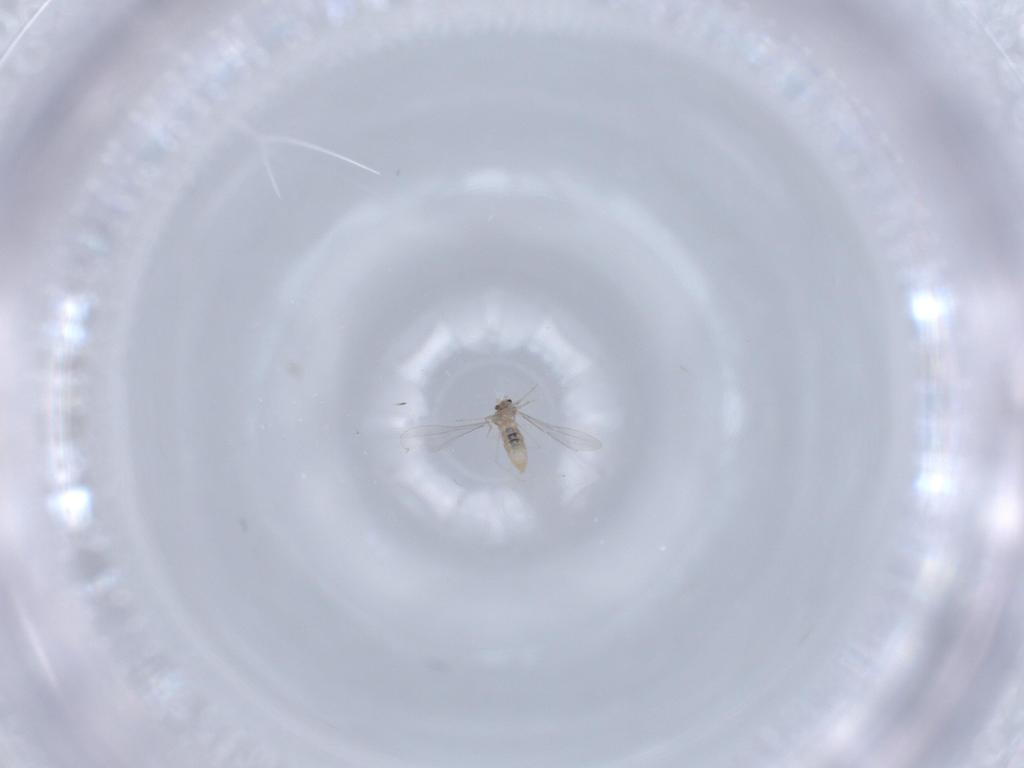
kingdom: Animalia
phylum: Arthropoda
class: Insecta
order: Diptera
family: Cecidomyiidae
